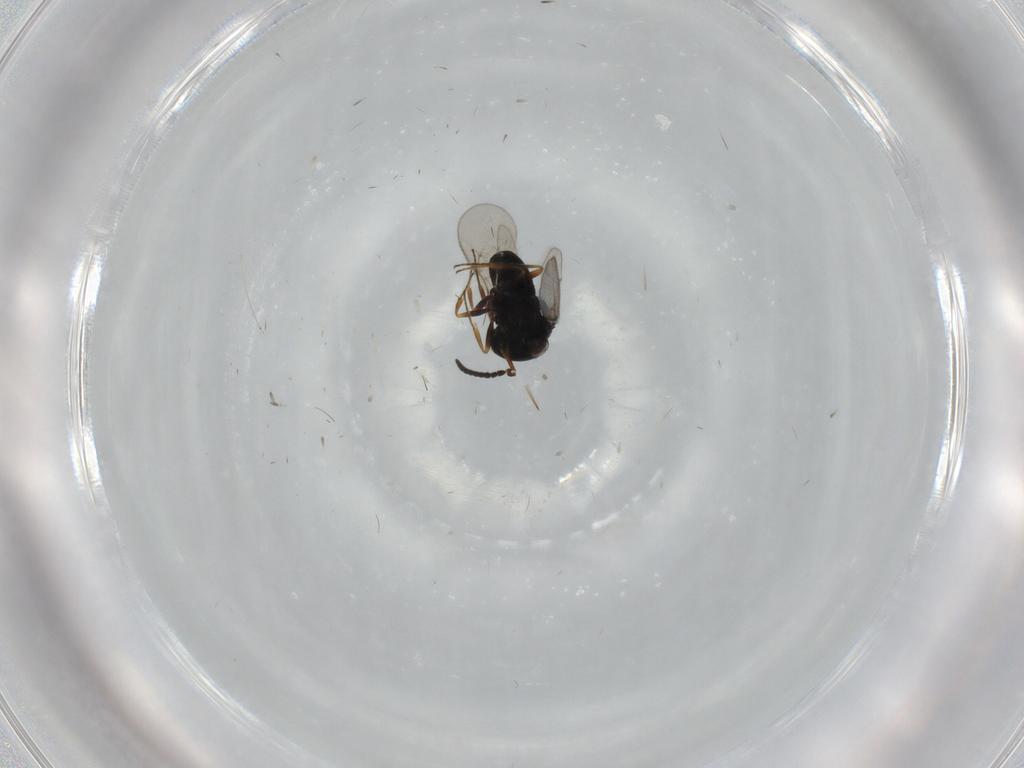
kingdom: Animalia
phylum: Arthropoda
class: Insecta
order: Hymenoptera
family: Scelionidae
